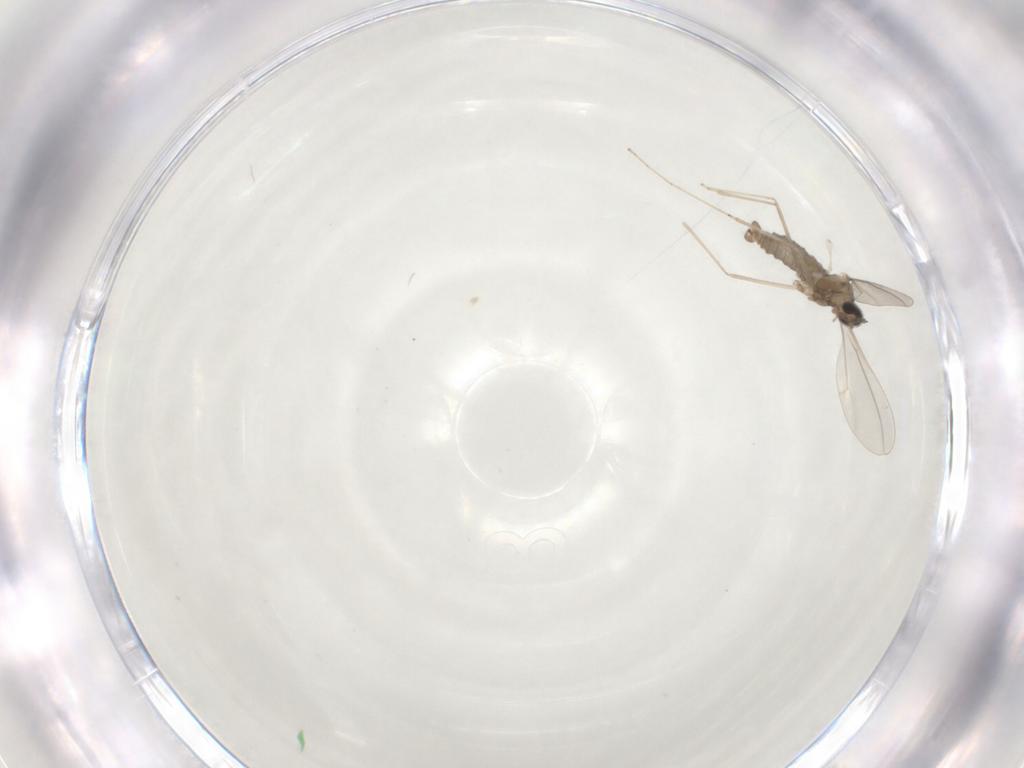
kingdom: Animalia
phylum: Arthropoda
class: Insecta
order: Diptera
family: Cecidomyiidae
